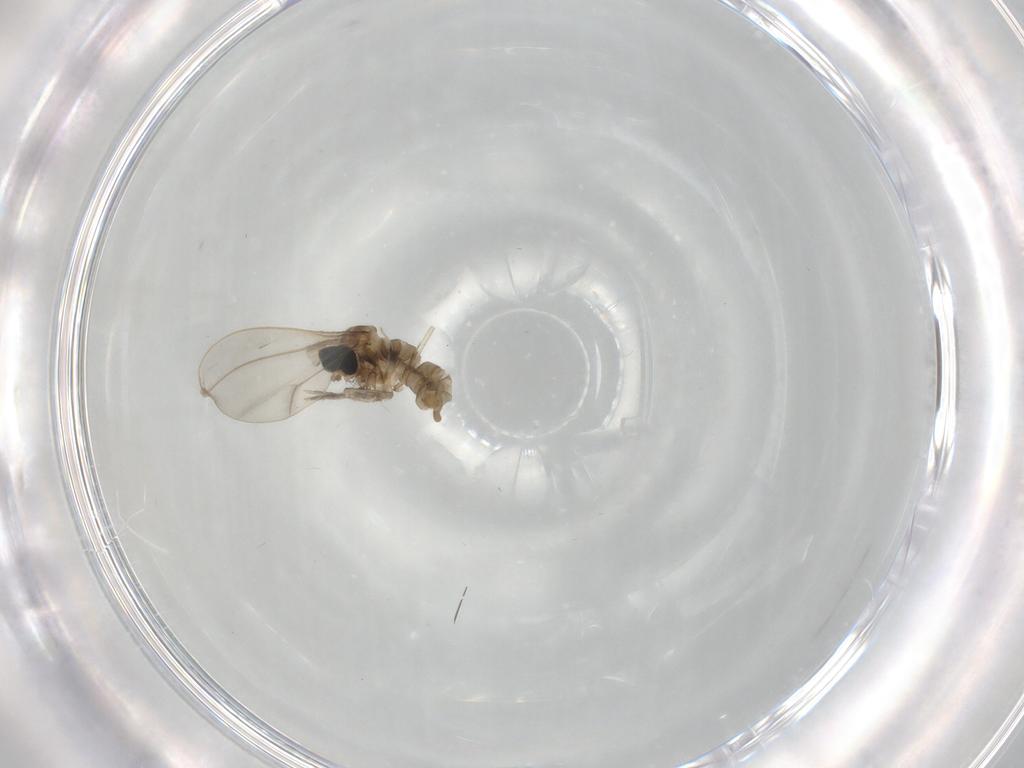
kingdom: Animalia
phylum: Arthropoda
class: Insecta
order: Diptera
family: Cecidomyiidae
